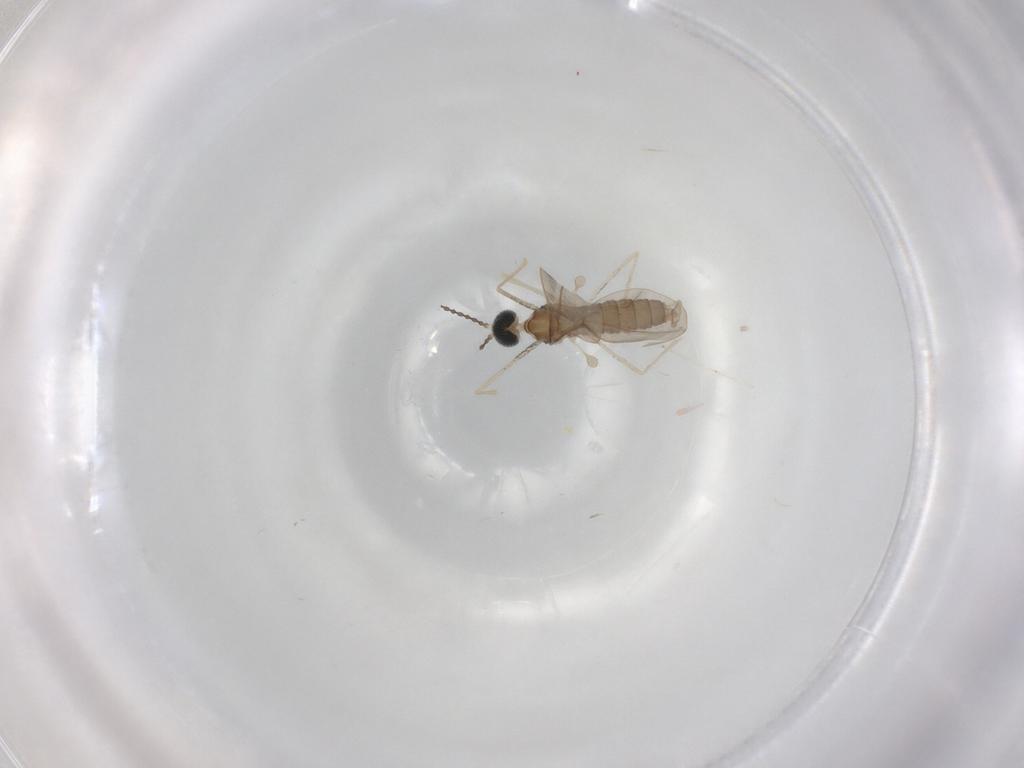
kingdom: Animalia
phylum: Arthropoda
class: Insecta
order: Diptera
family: Cecidomyiidae
